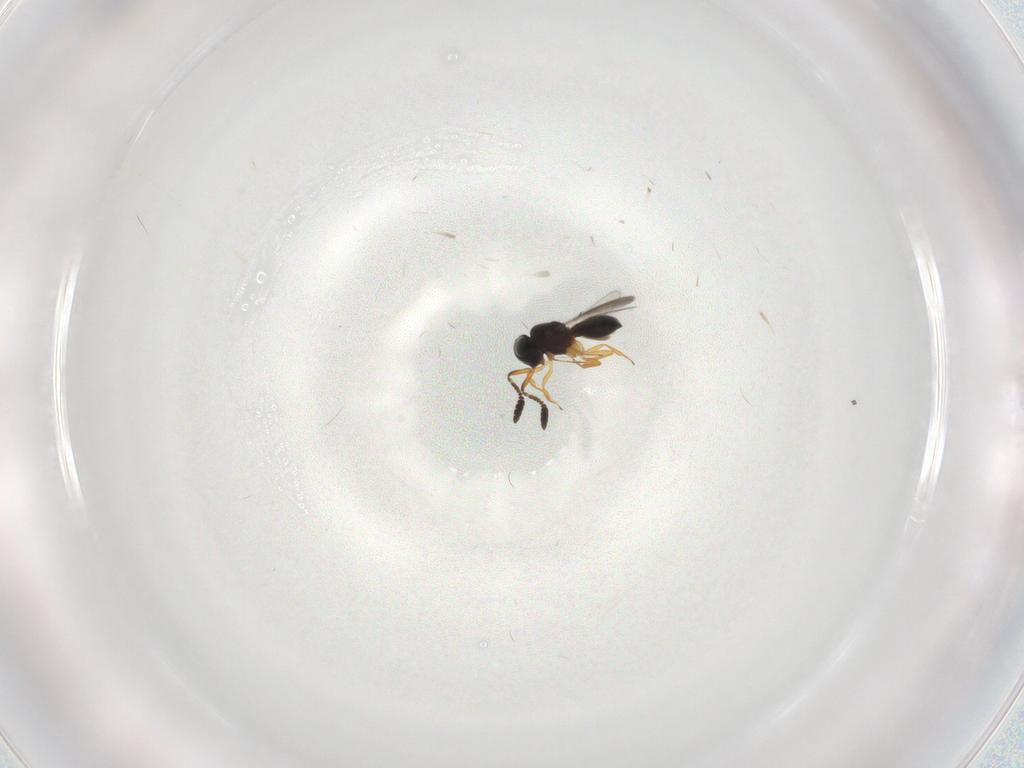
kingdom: Animalia
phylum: Arthropoda
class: Insecta
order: Hymenoptera
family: Scelionidae
